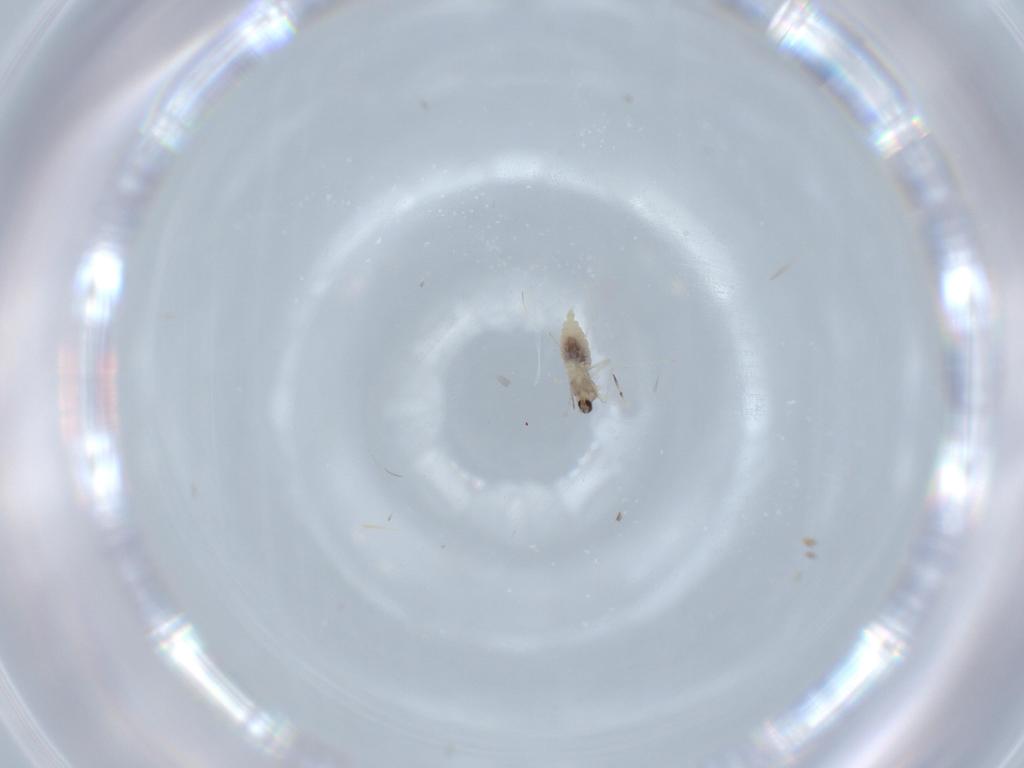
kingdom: Animalia
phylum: Arthropoda
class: Insecta
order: Diptera
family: Cecidomyiidae
